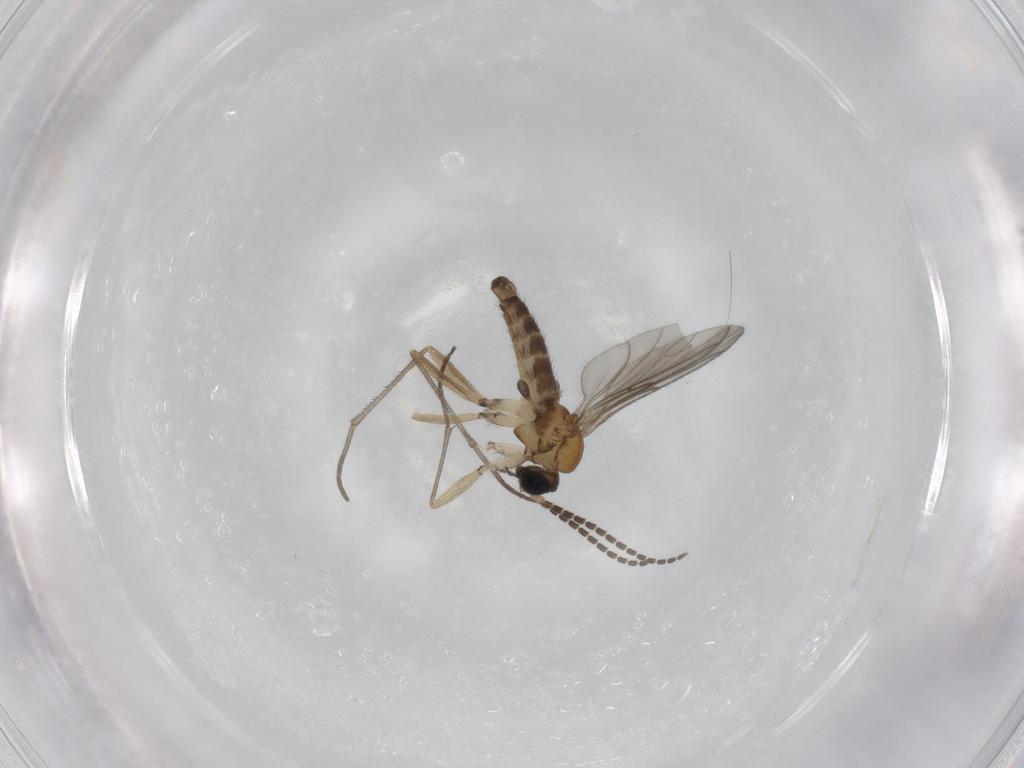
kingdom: Animalia
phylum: Arthropoda
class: Insecta
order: Diptera
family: Sciaridae
